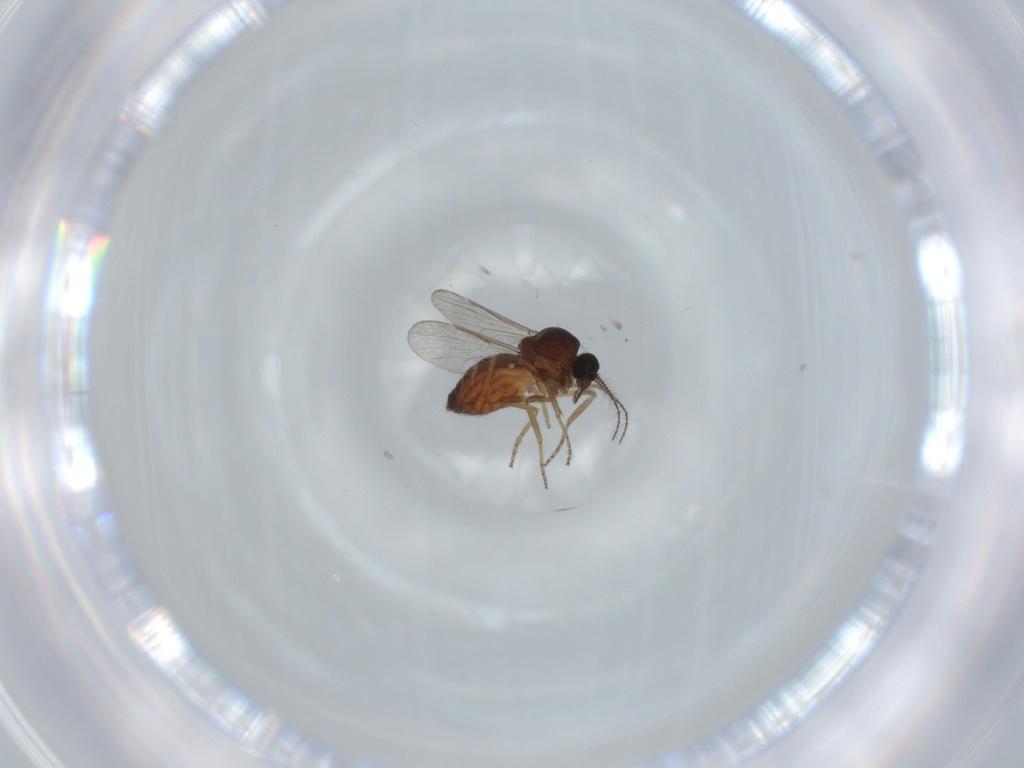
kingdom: Animalia
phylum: Arthropoda
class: Insecta
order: Diptera
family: Ceratopogonidae
